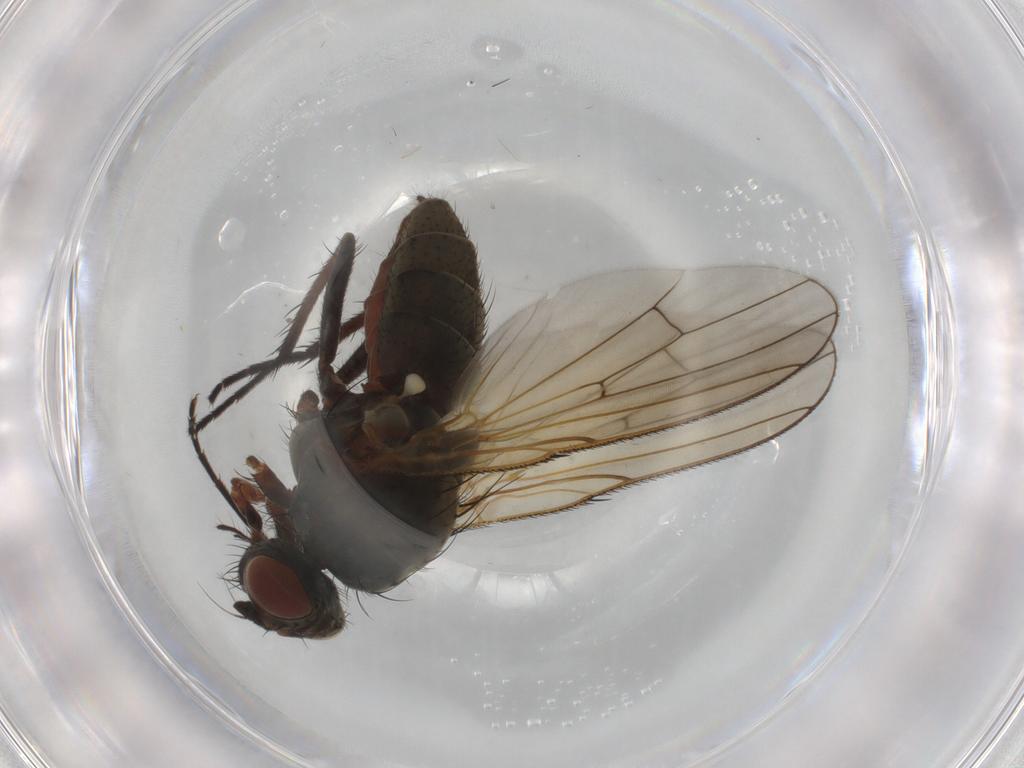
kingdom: Animalia
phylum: Arthropoda
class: Insecta
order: Diptera
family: Anthomyiidae
